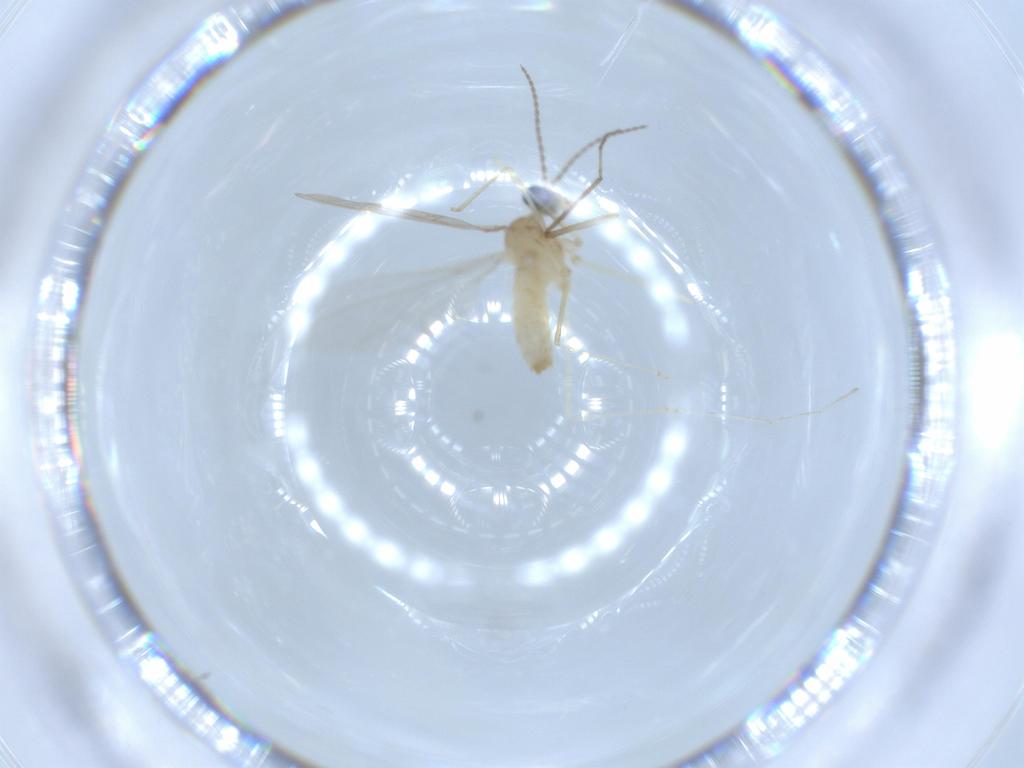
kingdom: Animalia
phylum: Arthropoda
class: Insecta
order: Diptera
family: Cecidomyiidae
